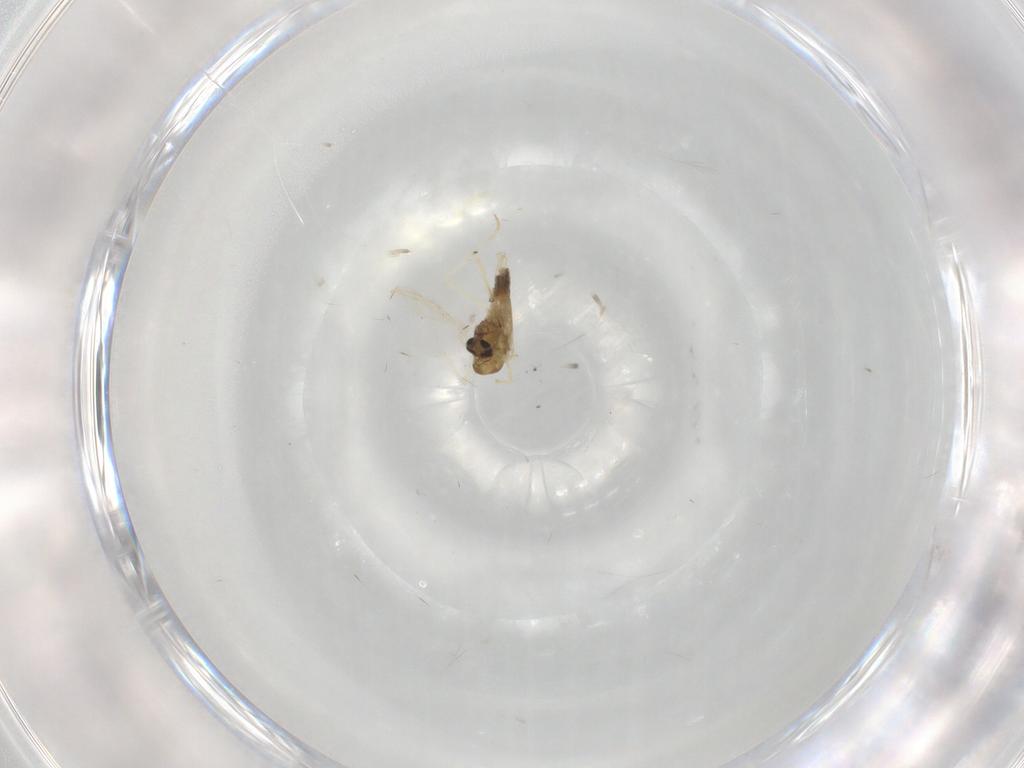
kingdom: Animalia
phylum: Arthropoda
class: Insecta
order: Diptera
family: Chironomidae
